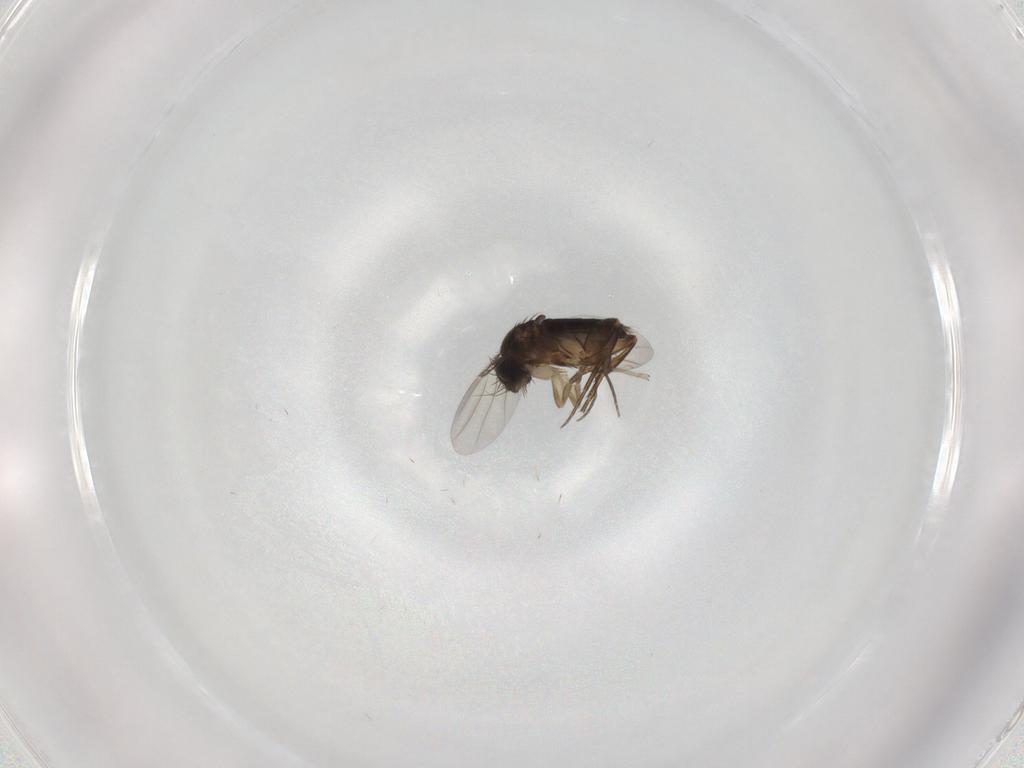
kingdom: Animalia
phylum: Arthropoda
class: Insecta
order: Diptera
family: Phoridae
